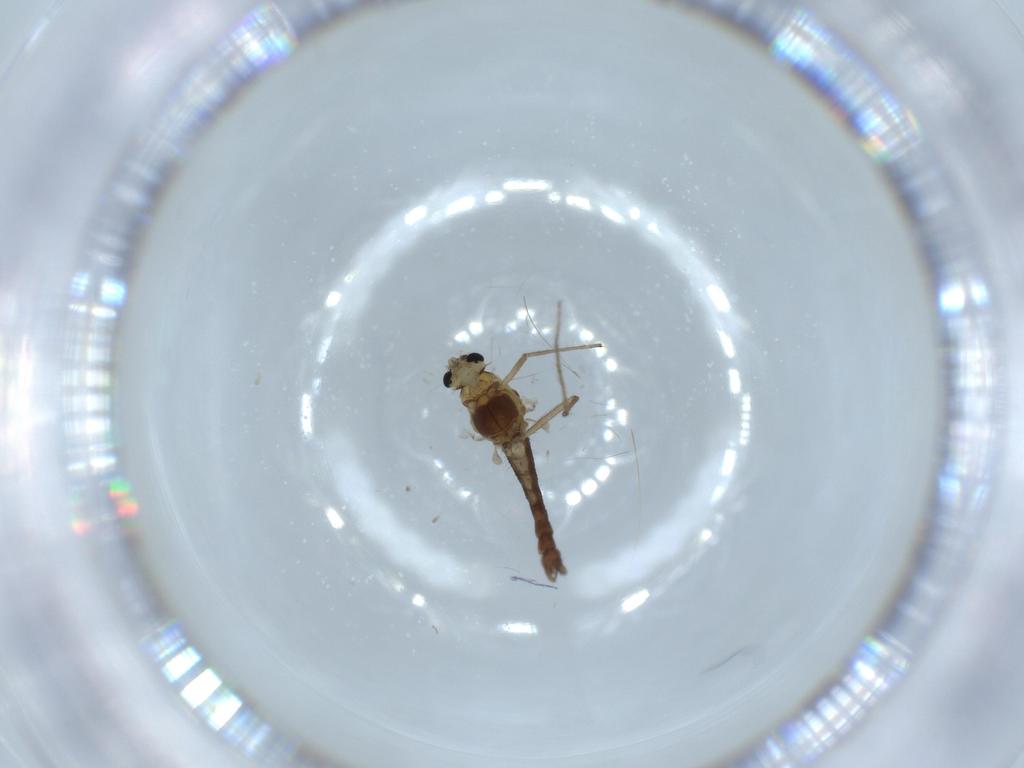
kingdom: Animalia
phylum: Arthropoda
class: Insecta
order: Diptera
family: Chironomidae
